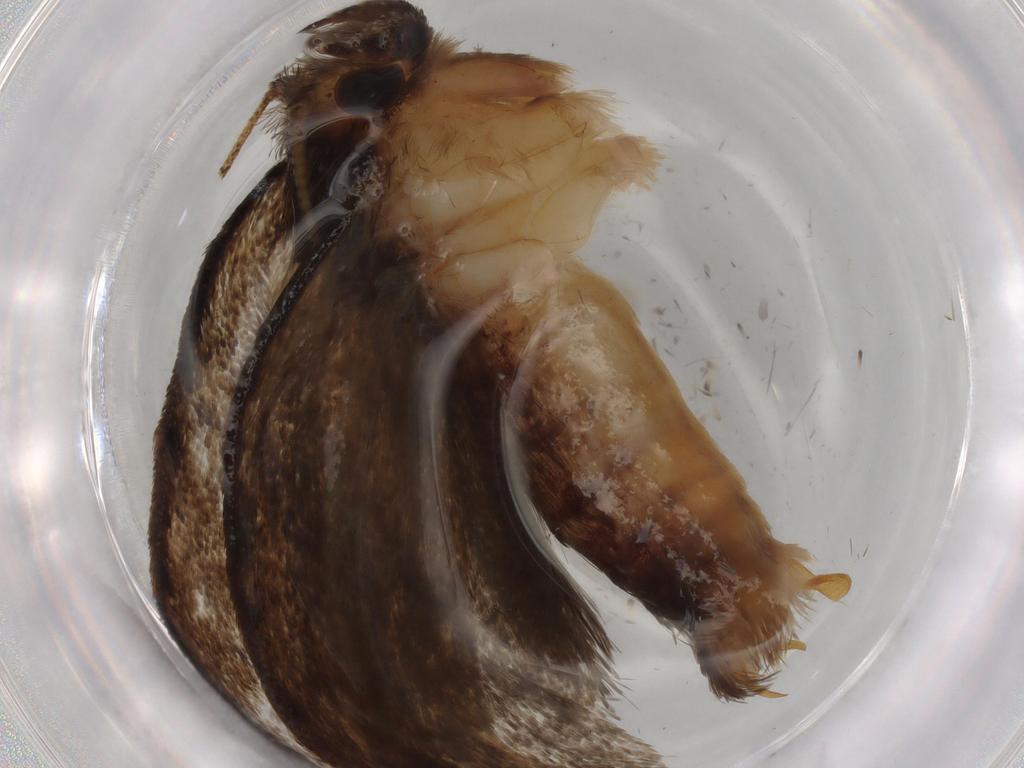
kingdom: Animalia
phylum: Arthropoda
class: Insecta
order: Lepidoptera
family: Tineidae
